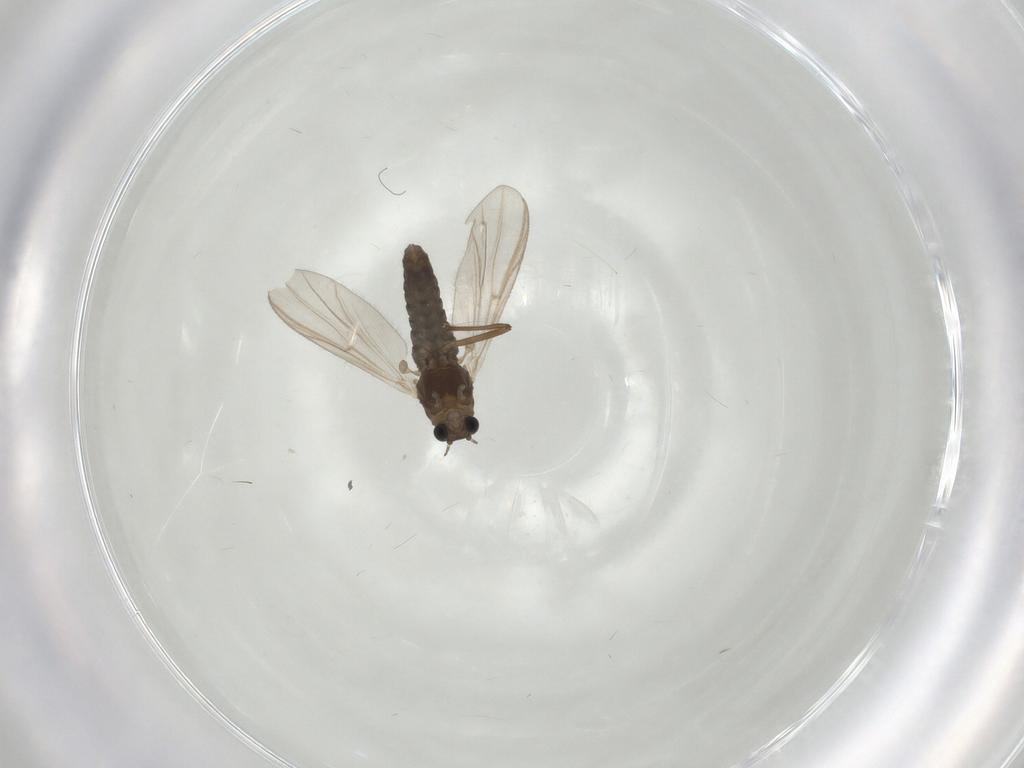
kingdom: Animalia
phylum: Arthropoda
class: Insecta
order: Diptera
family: Chironomidae
